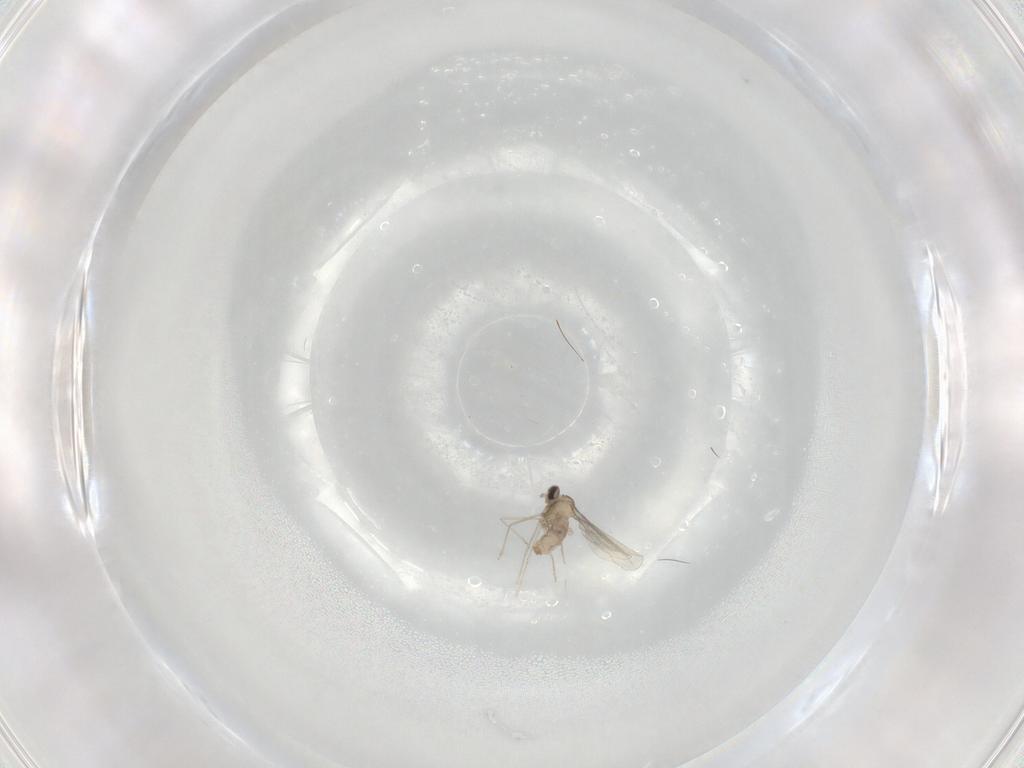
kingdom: Animalia
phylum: Arthropoda
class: Insecta
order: Diptera
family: Cecidomyiidae
